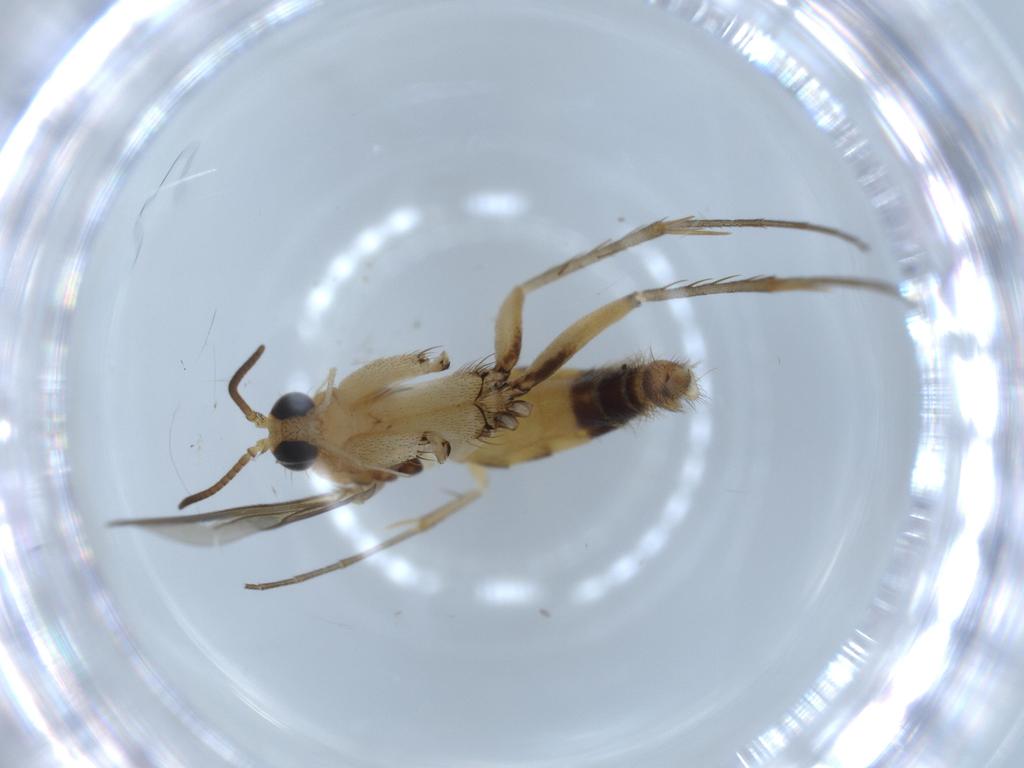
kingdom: Animalia
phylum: Arthropoda
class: Insecta
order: Diptera
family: Mycetophilidae
